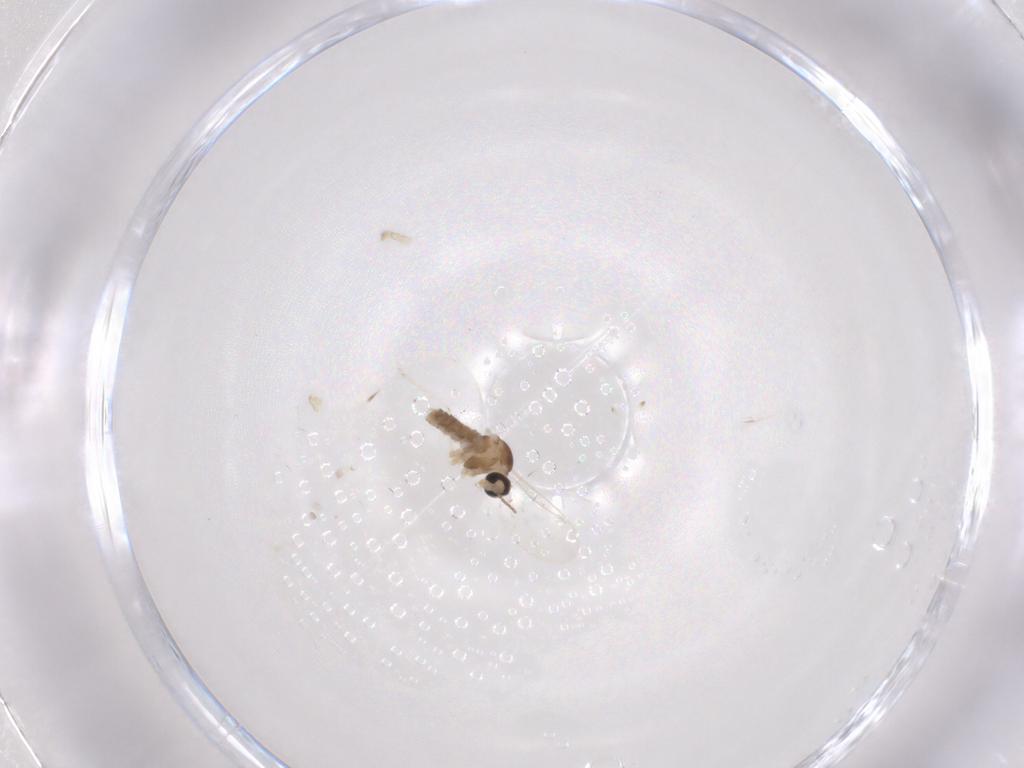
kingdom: Animalia
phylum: Arthropoda
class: Insecta
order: Diptera
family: Cecidomyiidae
